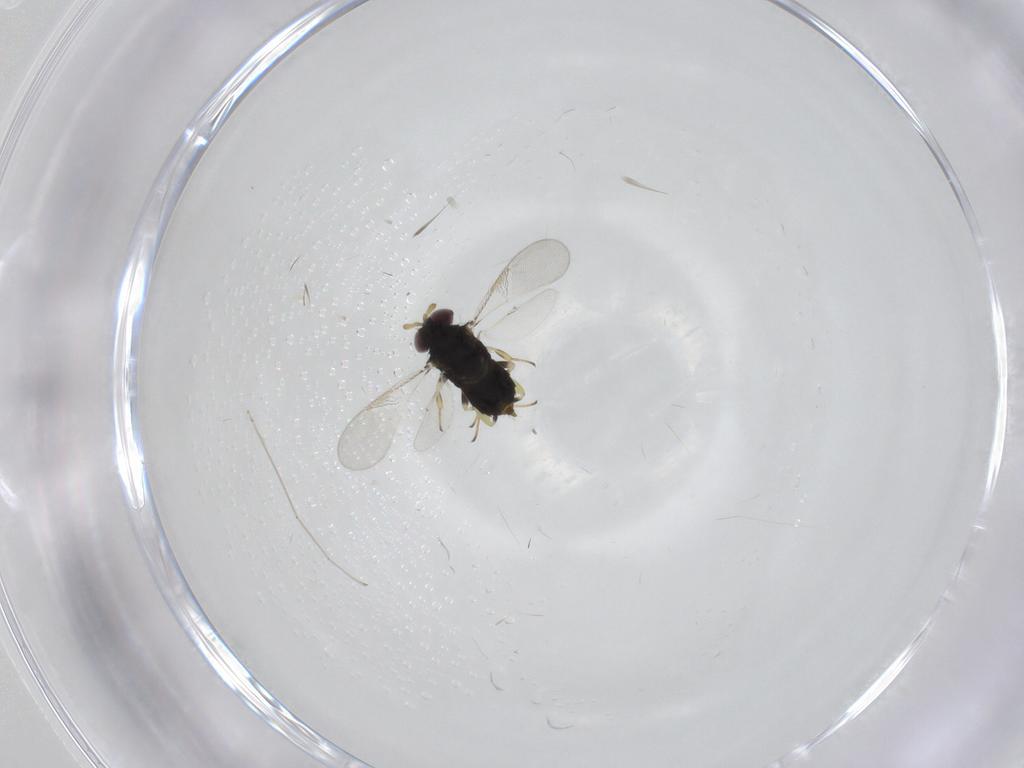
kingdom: Animalia
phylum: Arthropoda
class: Insecta
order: Hymenoptera
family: Aphelinidae
